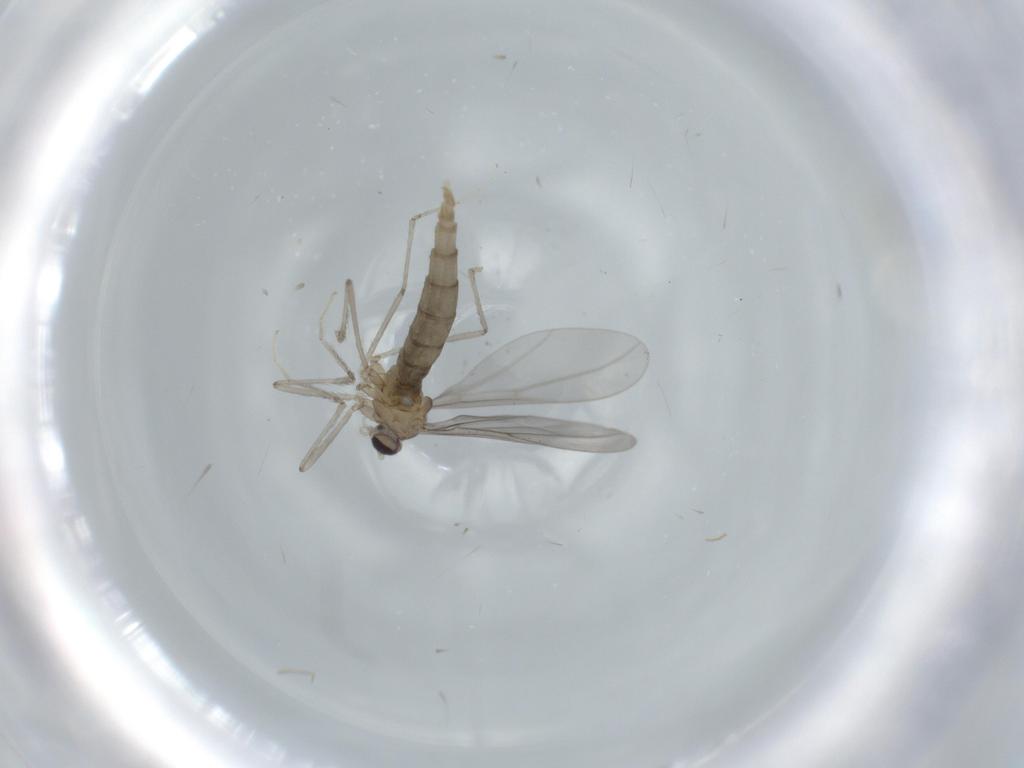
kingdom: Animalia
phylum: Arthropoda
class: Insecta
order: Diptera
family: Cecidomyiidae
